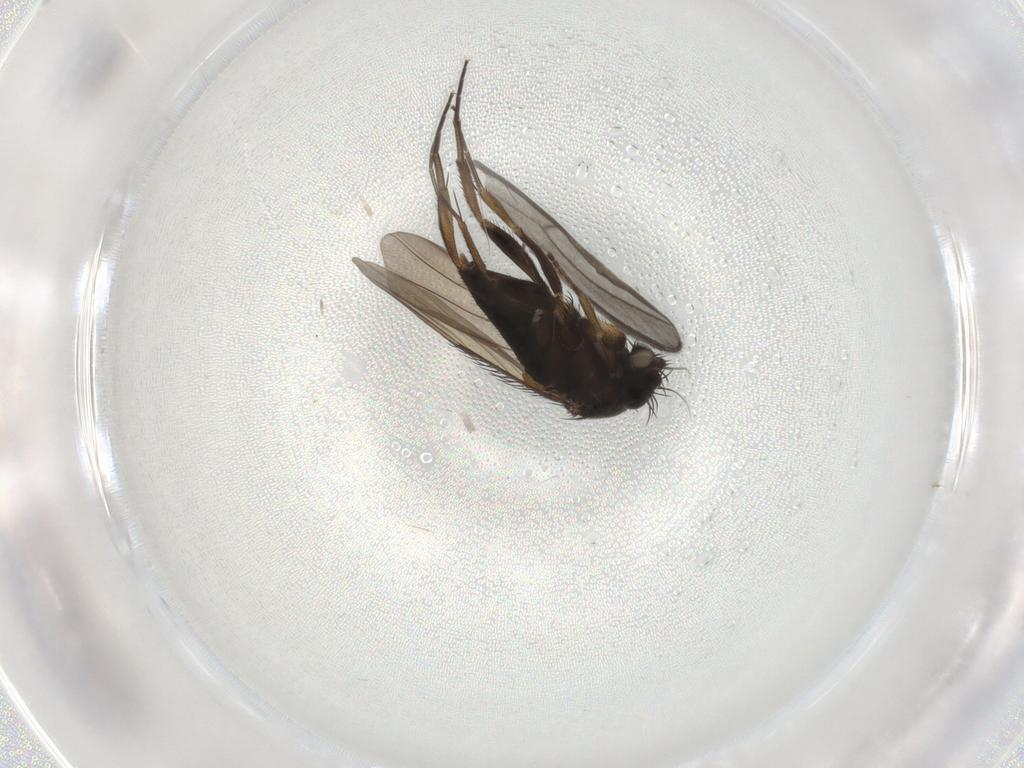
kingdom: Animalia
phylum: Arthropoda
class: Insecta
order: Diptera
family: Phoridae
